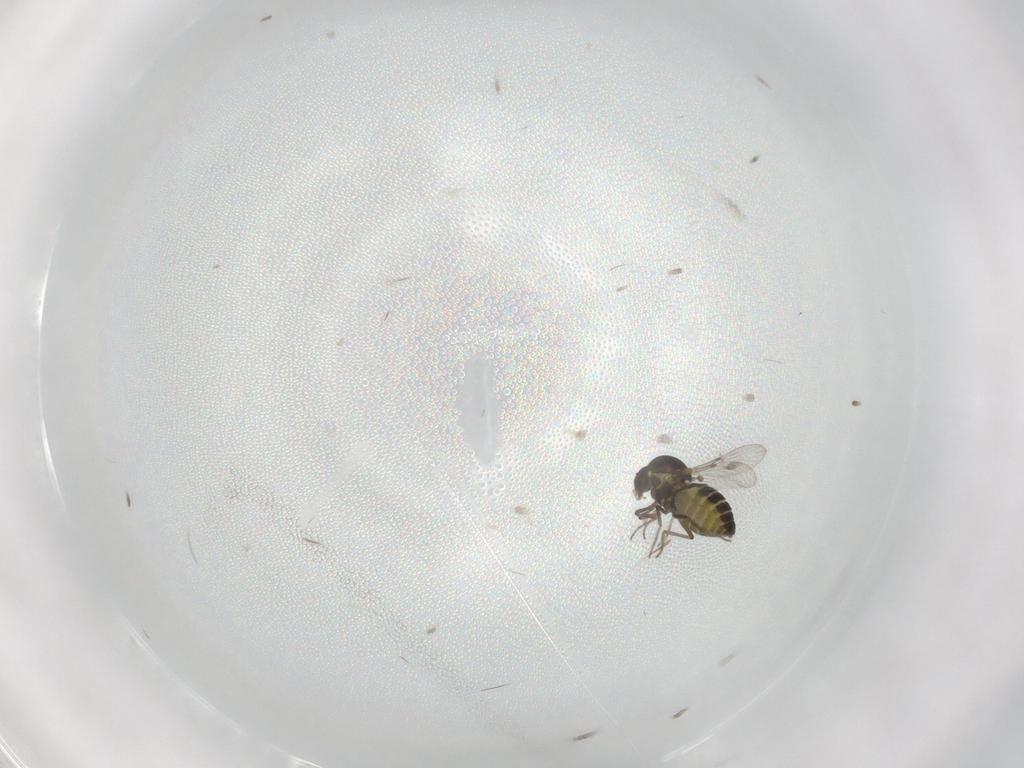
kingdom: Animalia
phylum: Arthropoda
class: Insecta
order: Diptera
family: Ceratopogonidae
